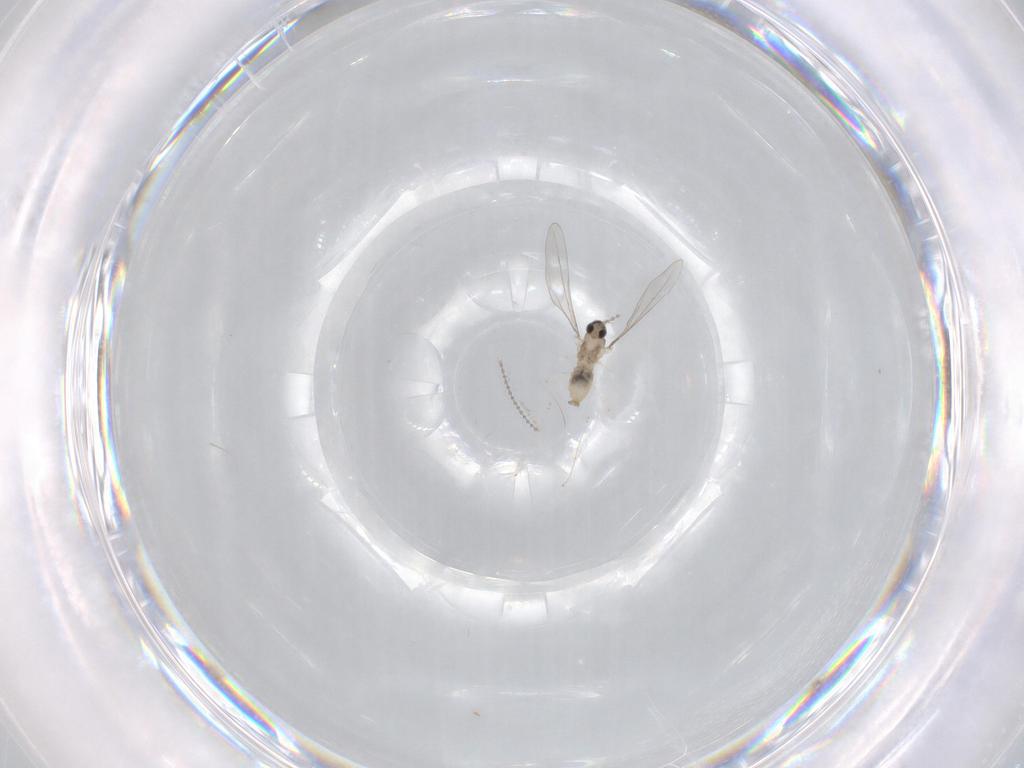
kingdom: Animalia
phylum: Arthropoda
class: Insecta
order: Diptera
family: Cecidomyiidae
